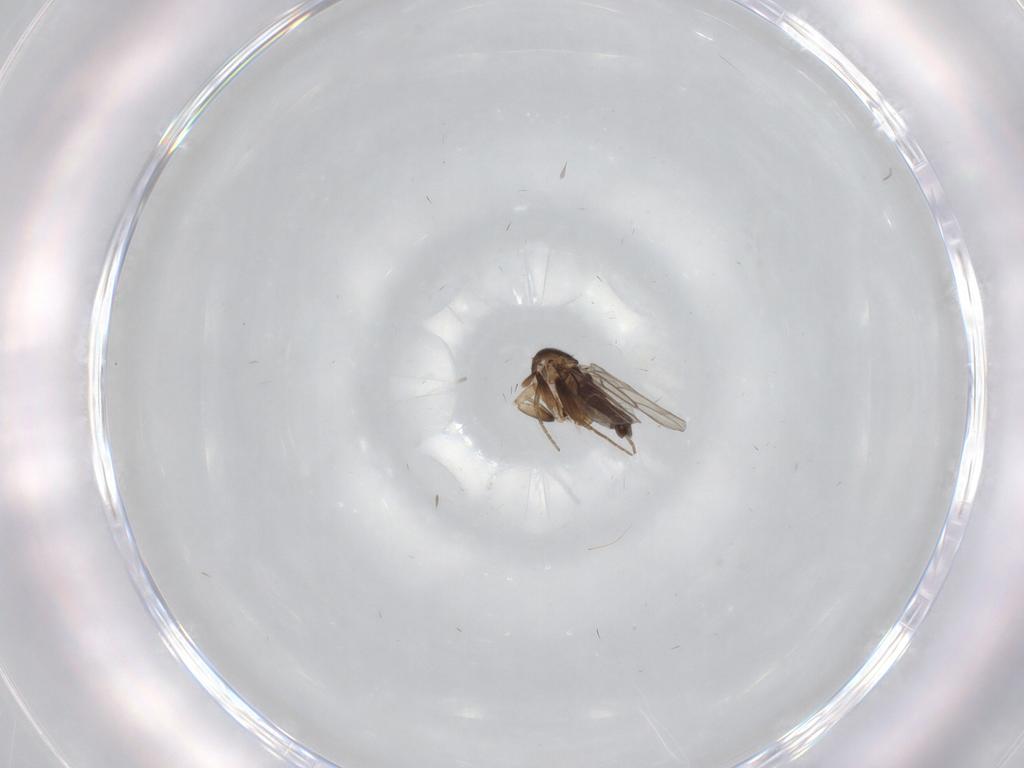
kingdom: Animalia
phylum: Arthropoda
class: Insecta
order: Diptera
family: Phoridae
